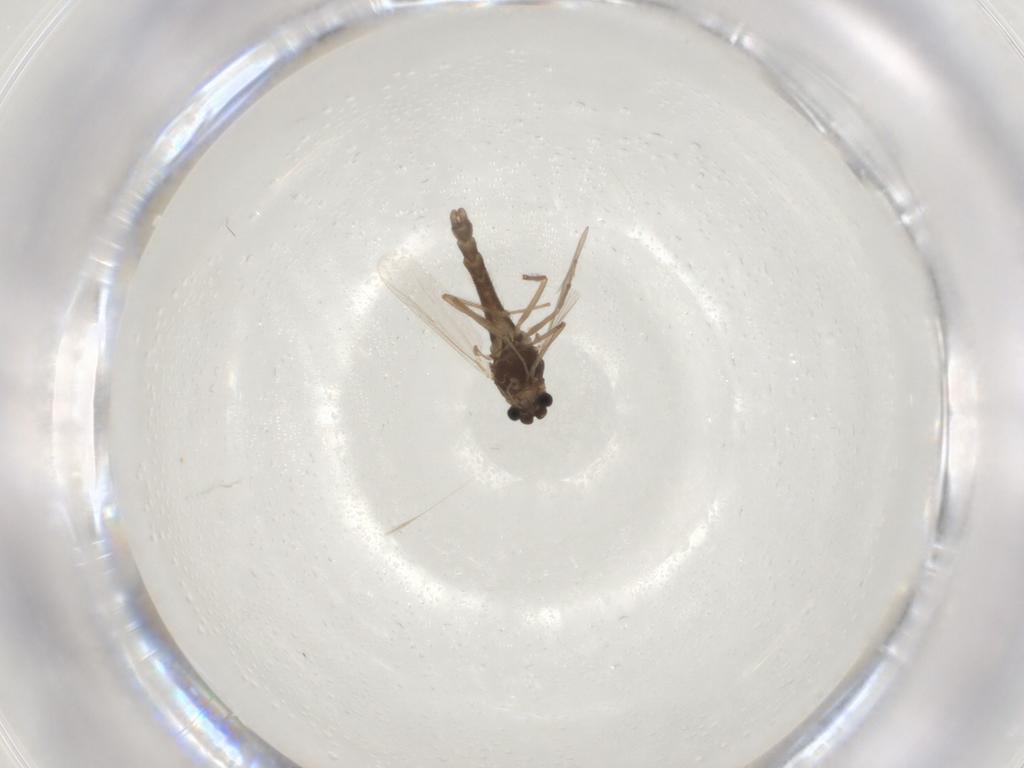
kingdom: Animalia
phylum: Arthropoda
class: Insecta
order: Diptera
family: Chironomidae
